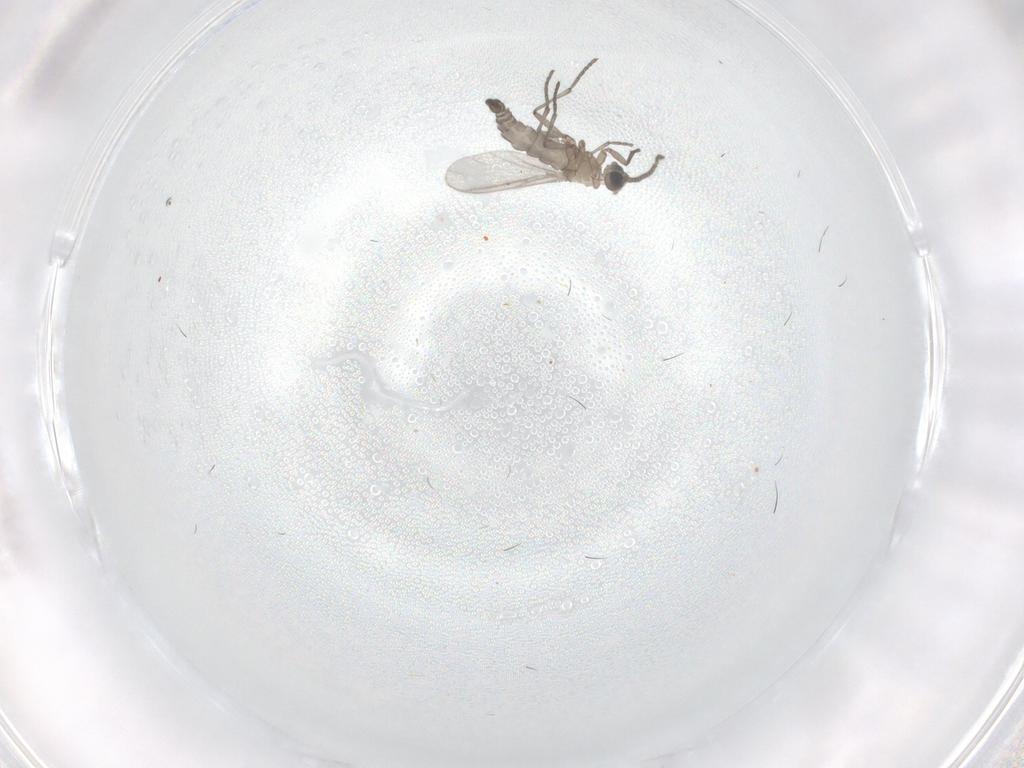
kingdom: Animalia
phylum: Arthropoda
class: Insecta
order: Diptera
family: Sciaridae
